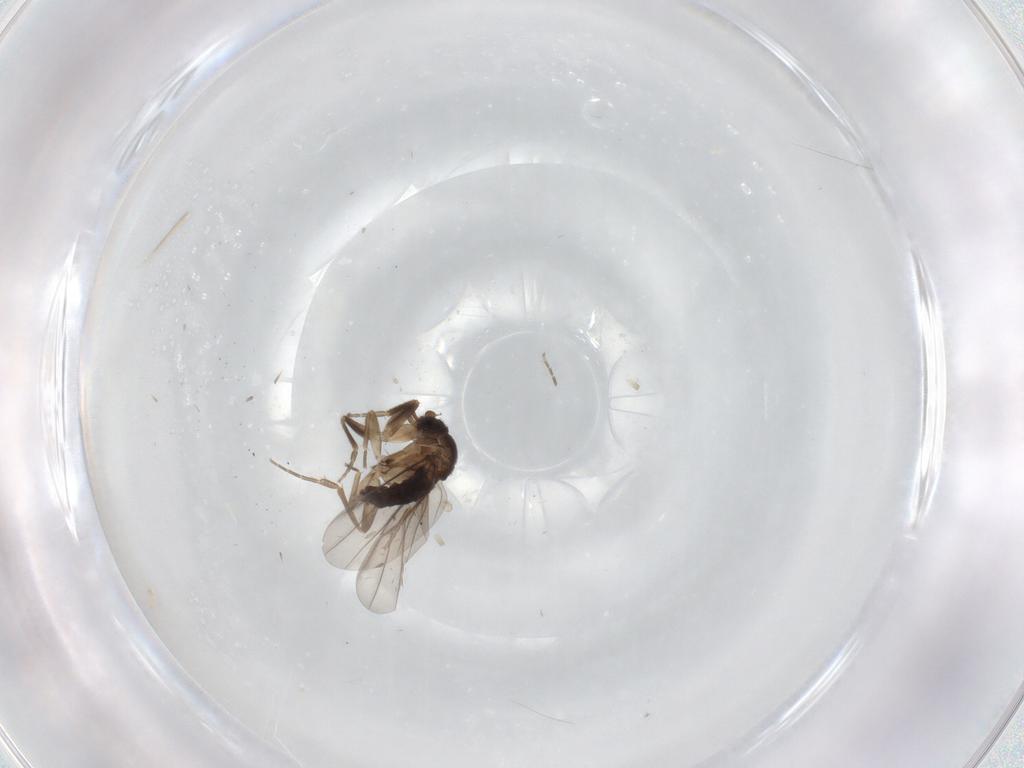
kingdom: Animalia
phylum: Arthropoda
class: Insecta
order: Diptera
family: Phoridae
